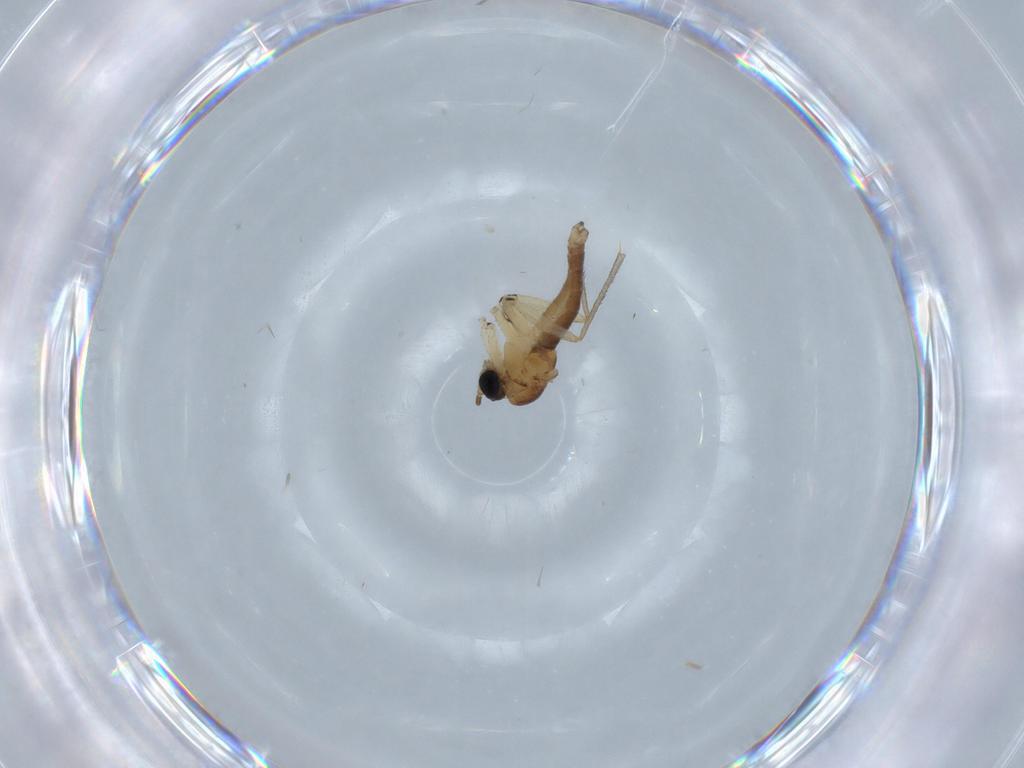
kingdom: Animalia
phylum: Arthropoda
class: Insecta
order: Diptera
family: Sciaridae
